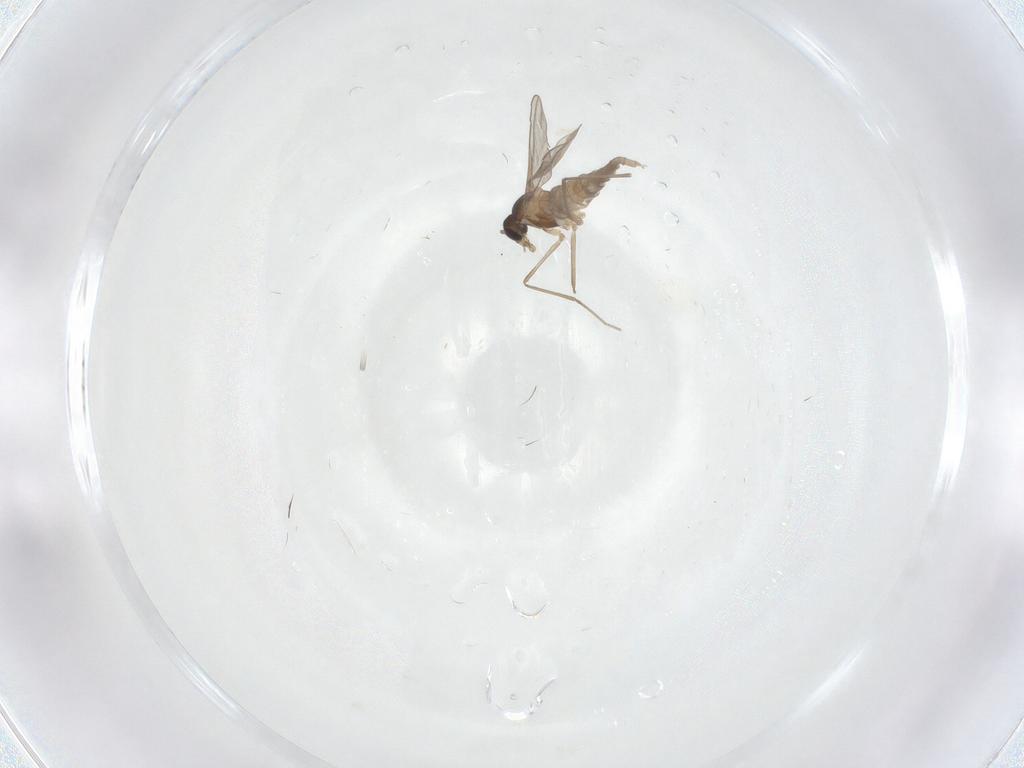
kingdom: Animalia
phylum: Arthropoda
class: Insecta
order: Diptera
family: Cecidomyiidae
